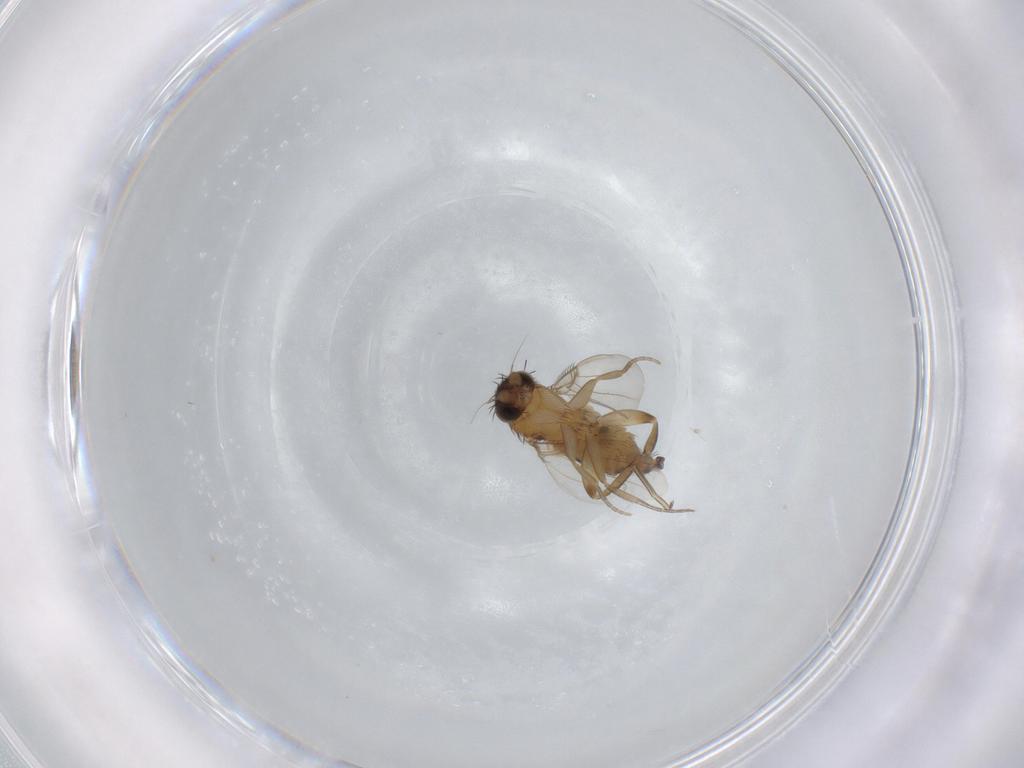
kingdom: Animalia
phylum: Arthropoda
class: Insecta
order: Diptera
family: Phoridae
